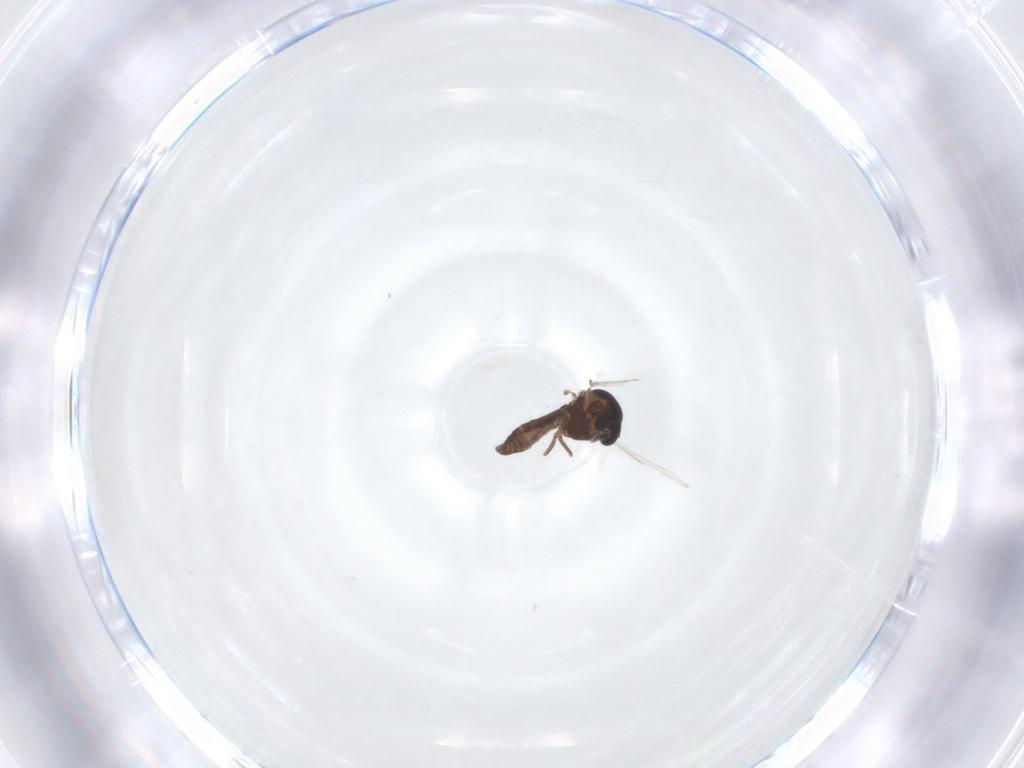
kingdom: Animalia
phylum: Arthropoda
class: Insecta
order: Diptera
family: Ceratopogonidae
